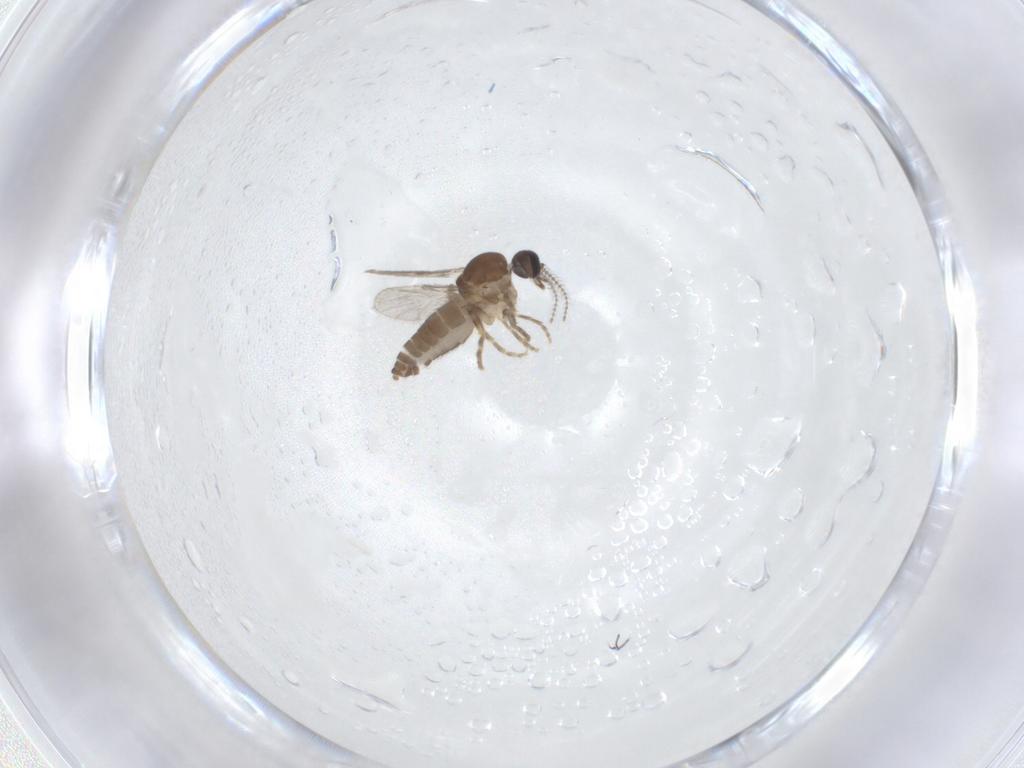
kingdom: Animalia
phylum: Arthropoda
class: Insecta
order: Diptera
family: Ceratopogonidae
